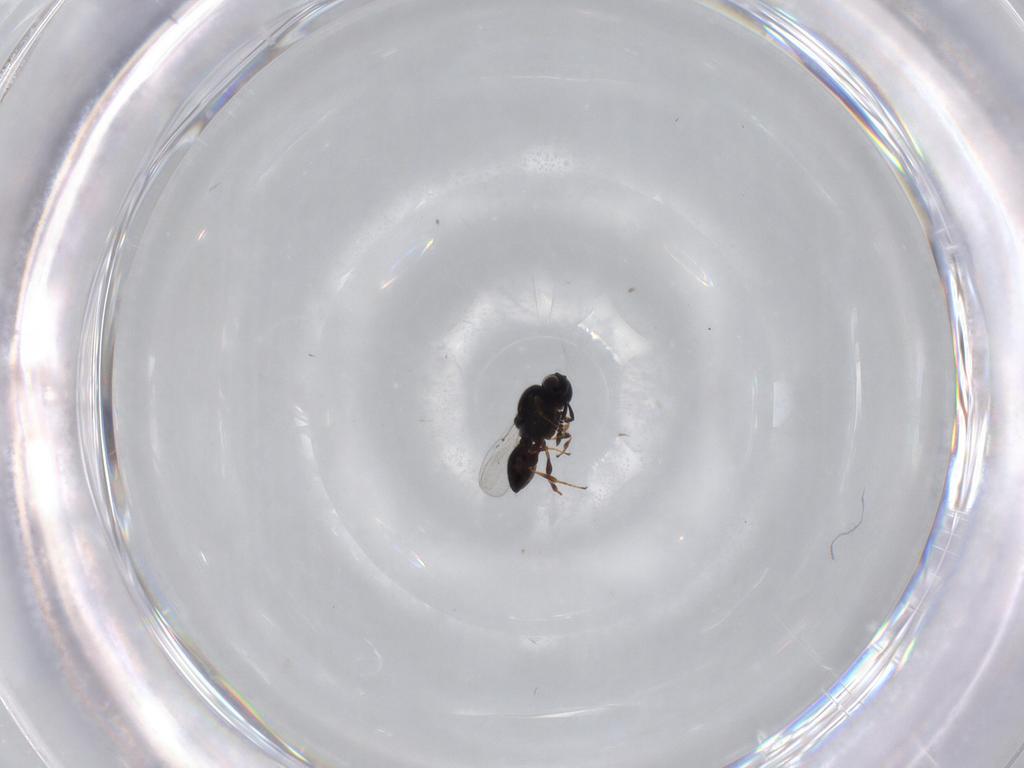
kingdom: Animalia
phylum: Arthropoda
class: Insecta
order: Hymenoptera
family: Platygastridae
